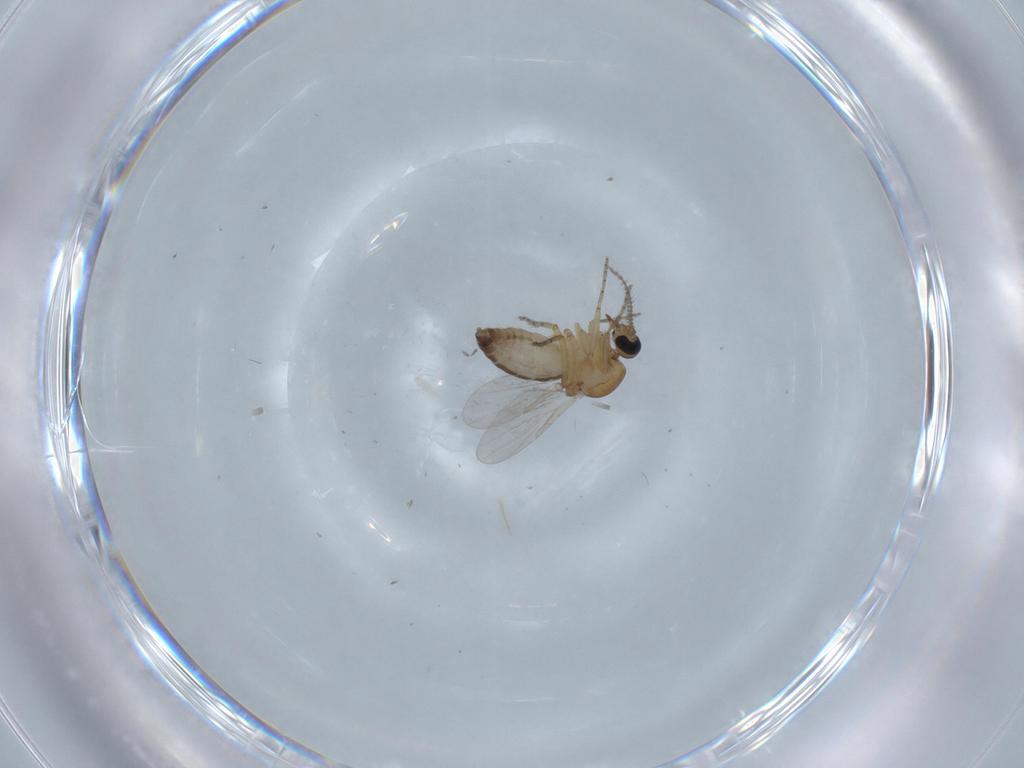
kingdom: Animalia
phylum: Arthropoda
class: Insecta
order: Diptera
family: Ceratopogonidae
